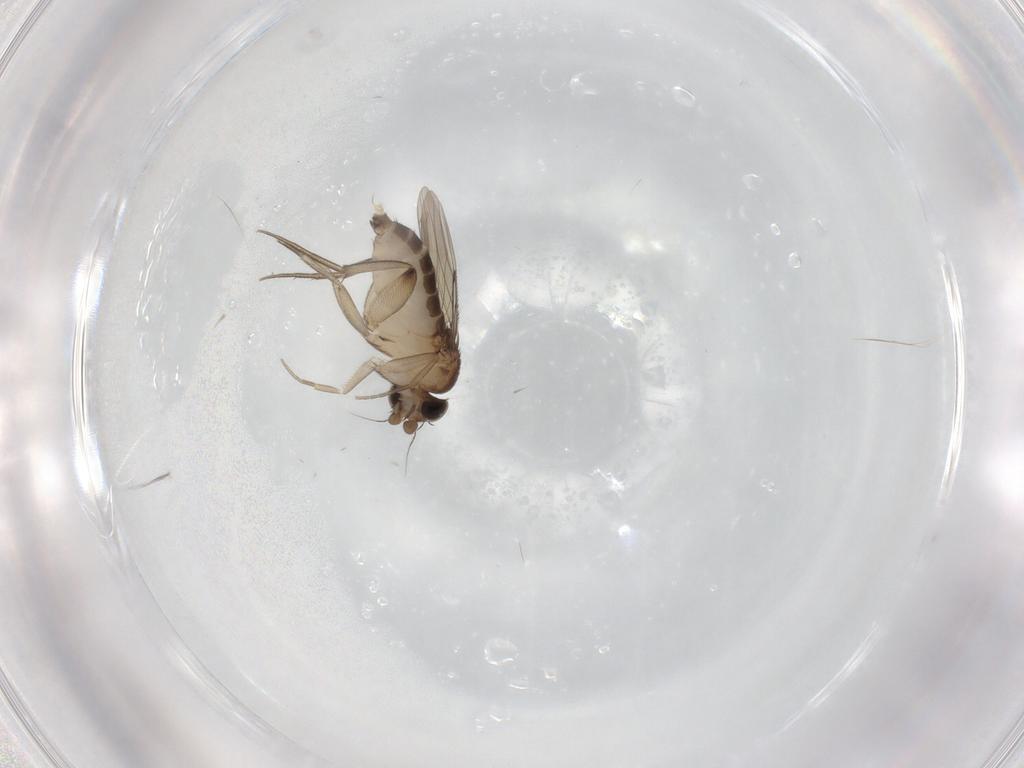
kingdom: Animalia
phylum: Arthropoda
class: Insecta
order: Diptera
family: Phoridae
